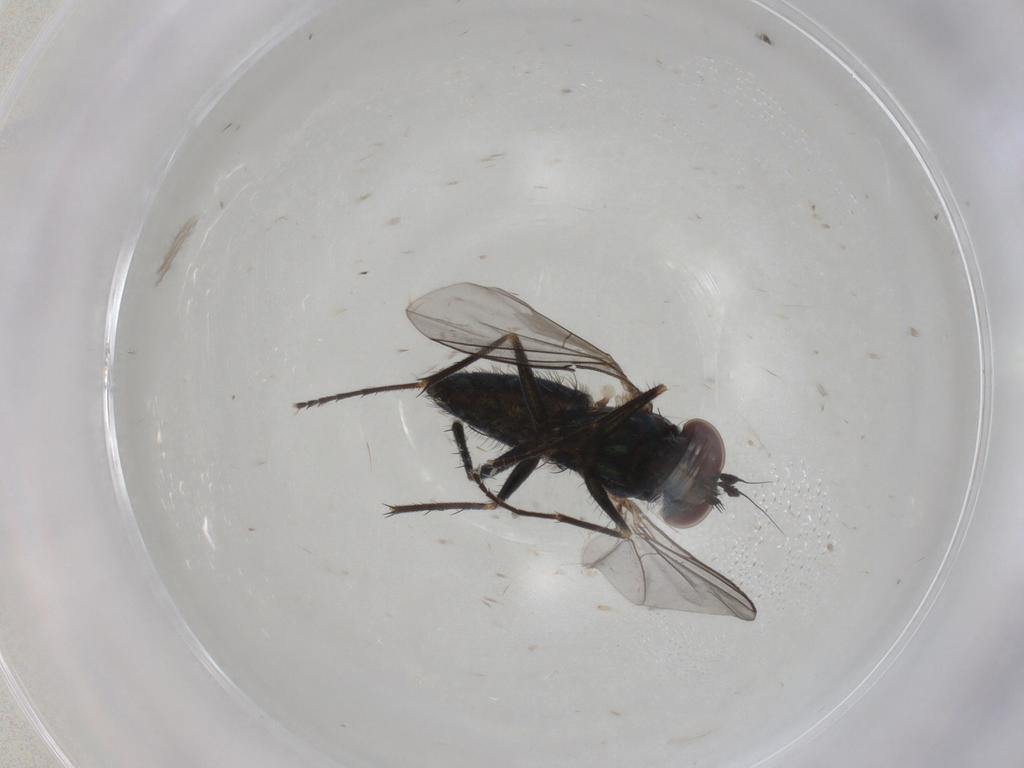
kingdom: Animalia
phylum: Arthropoda
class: Insecta
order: Diptera
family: Dolichopodidae
